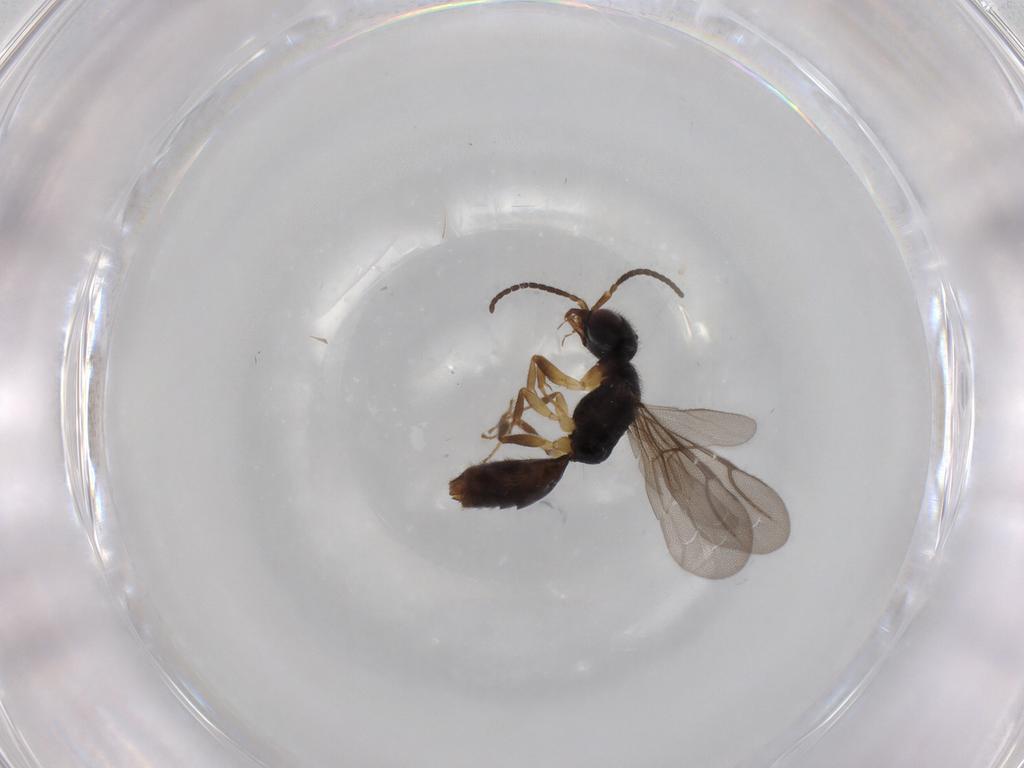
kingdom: Animalia
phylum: Arthropoda
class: Insecta
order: Hymenoptera
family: Bethylidae
